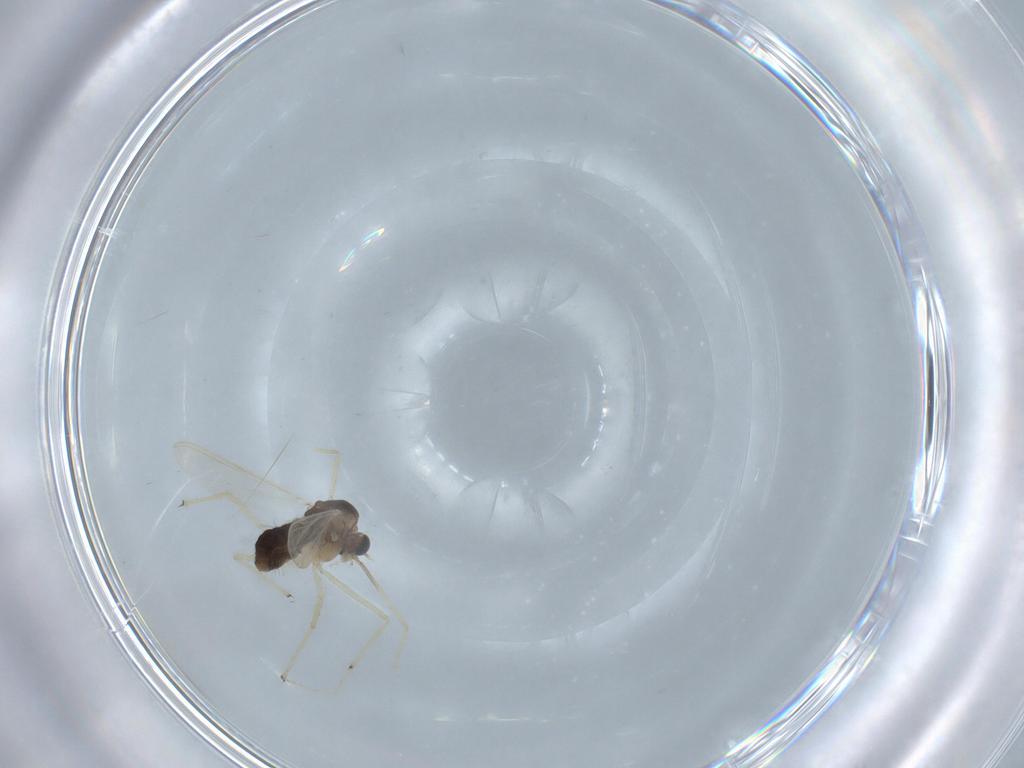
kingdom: Animalia
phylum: Arthropoda
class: Insecta
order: Diptera
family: Chironomidae
